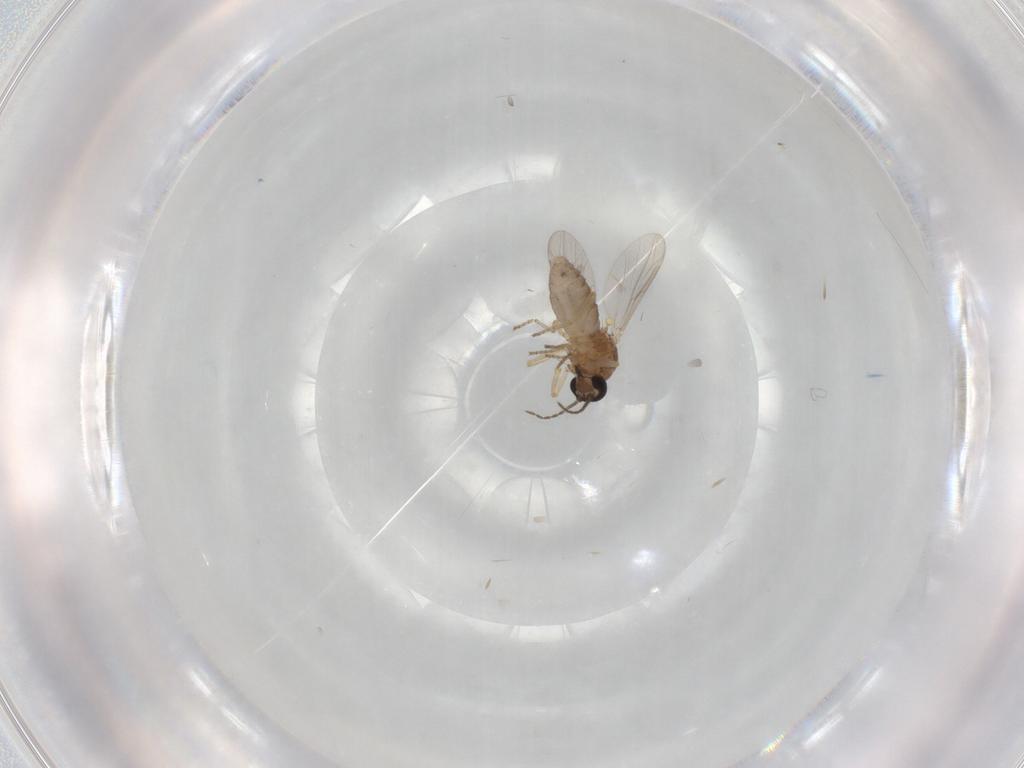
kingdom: Animalia
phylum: Arthropoda
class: Insecta
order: Diptera
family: Ceratopogonidae
